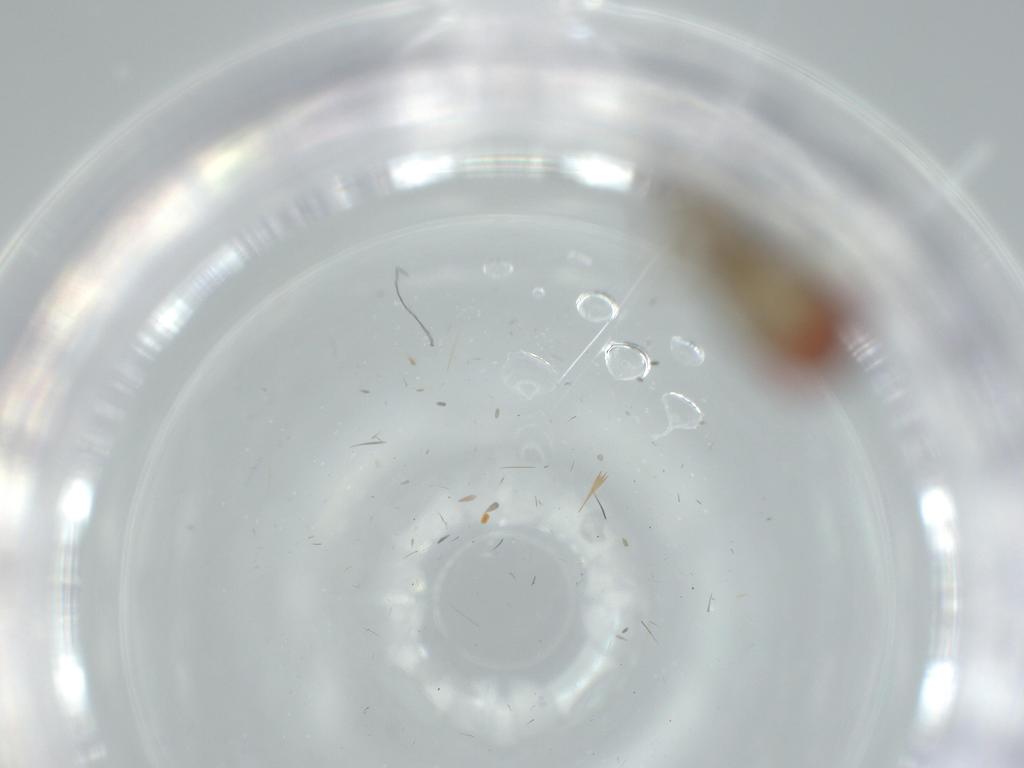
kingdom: Animalia
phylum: Arthropoda
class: Insecta
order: Diptera
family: Drosophilidae
